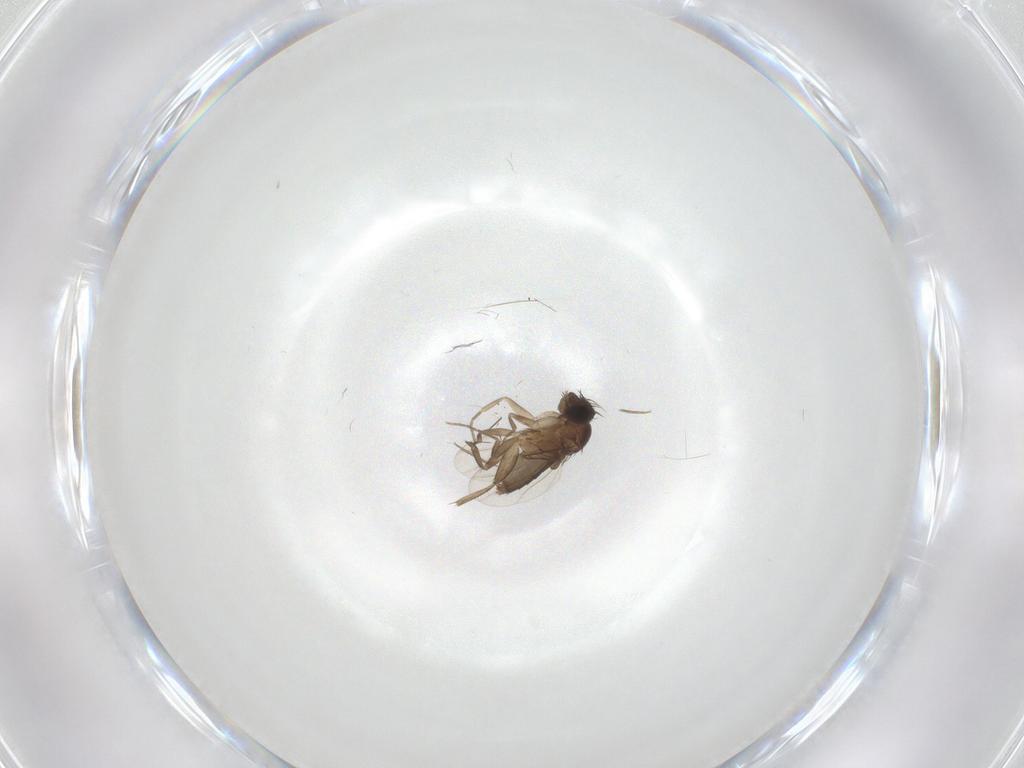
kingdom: Animalia
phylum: Arthropoda
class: Insecta
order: Diptera
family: Phoridae
